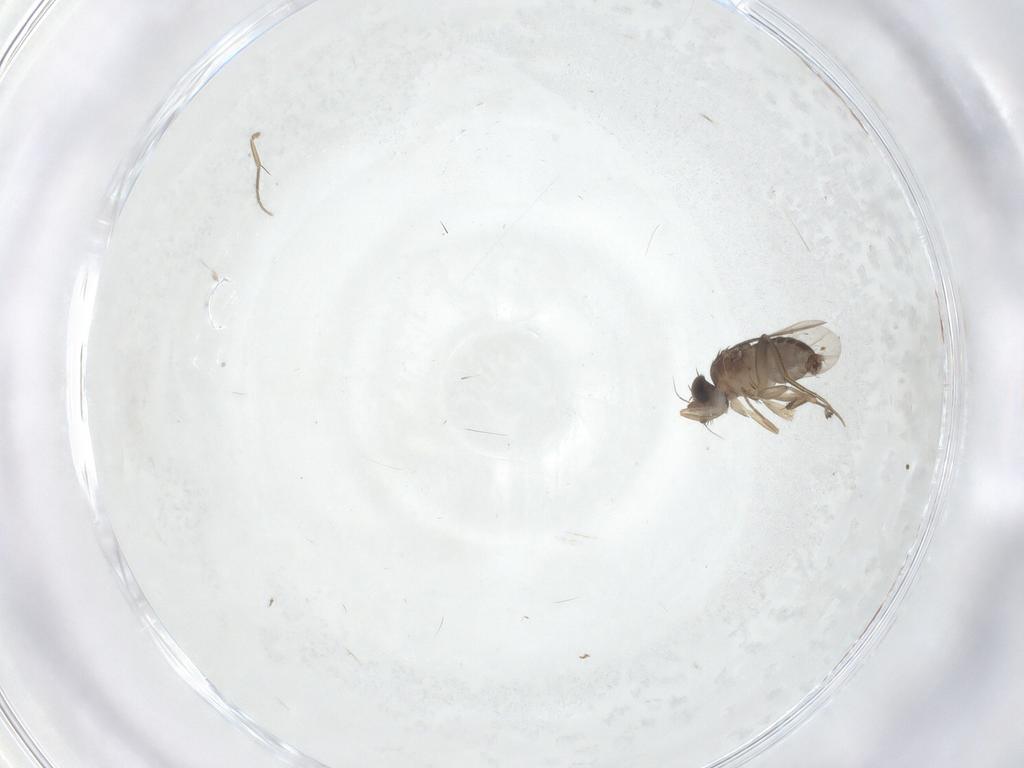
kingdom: Animalia
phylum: Arthropoda
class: Insecta
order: Diptera
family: Phoridae
